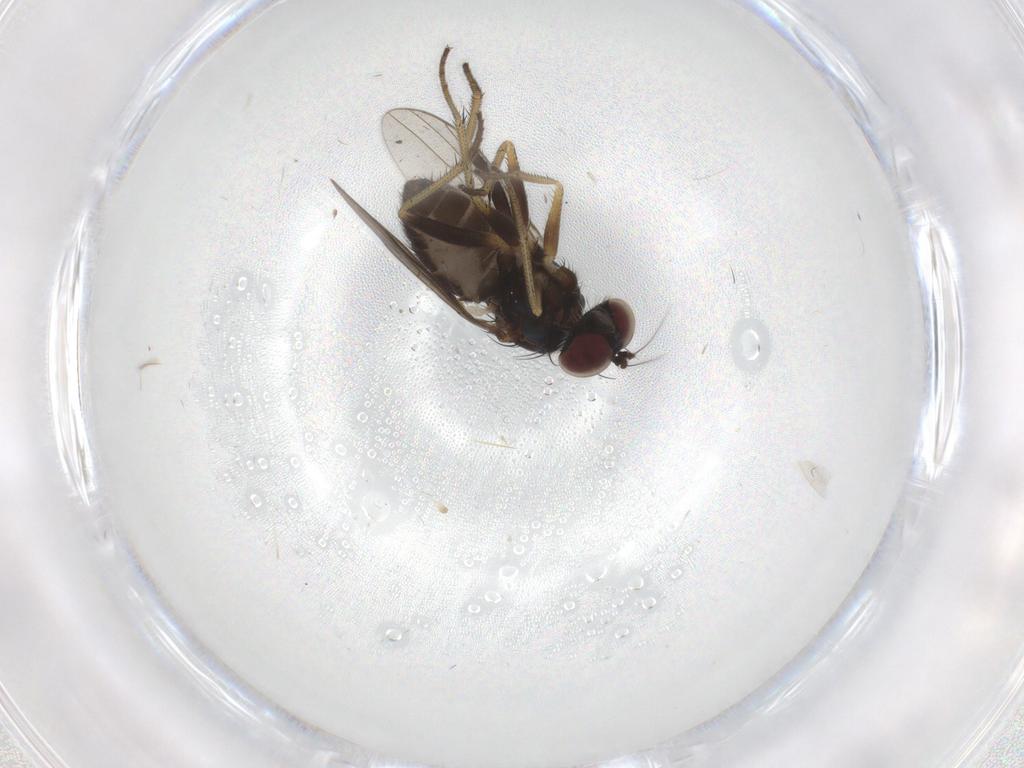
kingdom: Animalia
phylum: Arthropoda
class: Insecta
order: Diptera
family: Dolichopodidae
